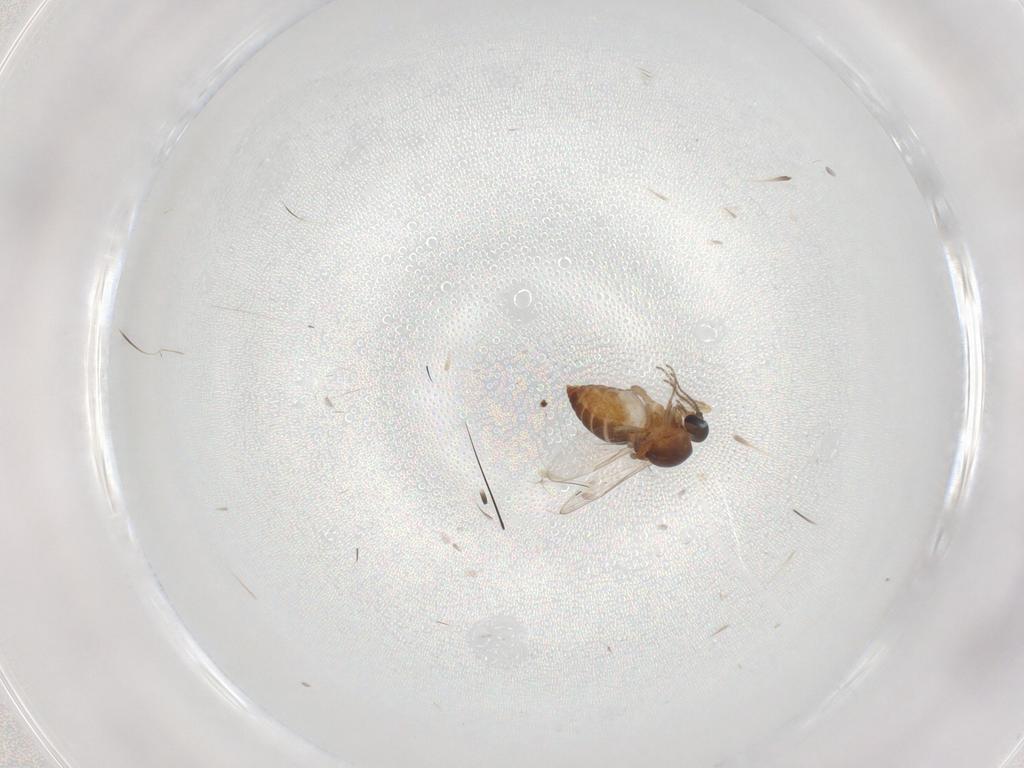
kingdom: Animalia
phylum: Arthropoda
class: Insecta
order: Diptera
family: Ceratopogonidae
